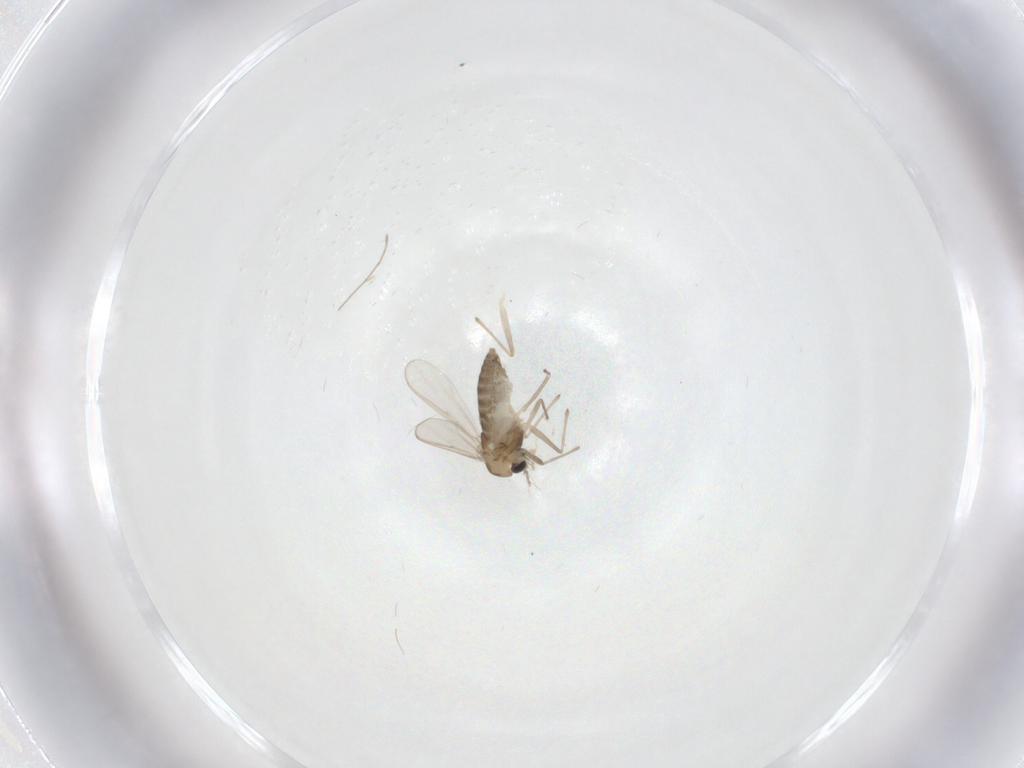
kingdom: Animalia
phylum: Arthropoda
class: Insecta
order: Diptera
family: Chironomidae
